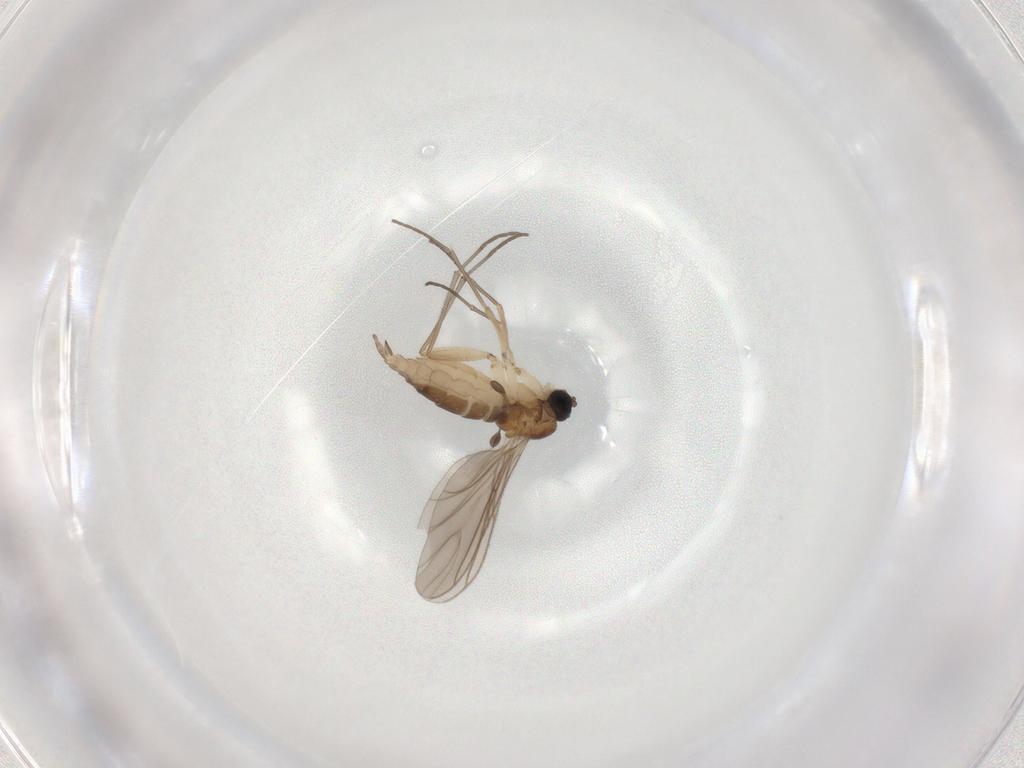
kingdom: Animalia
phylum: Arthropoda
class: Insecta
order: Diptera
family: Sciaridae
